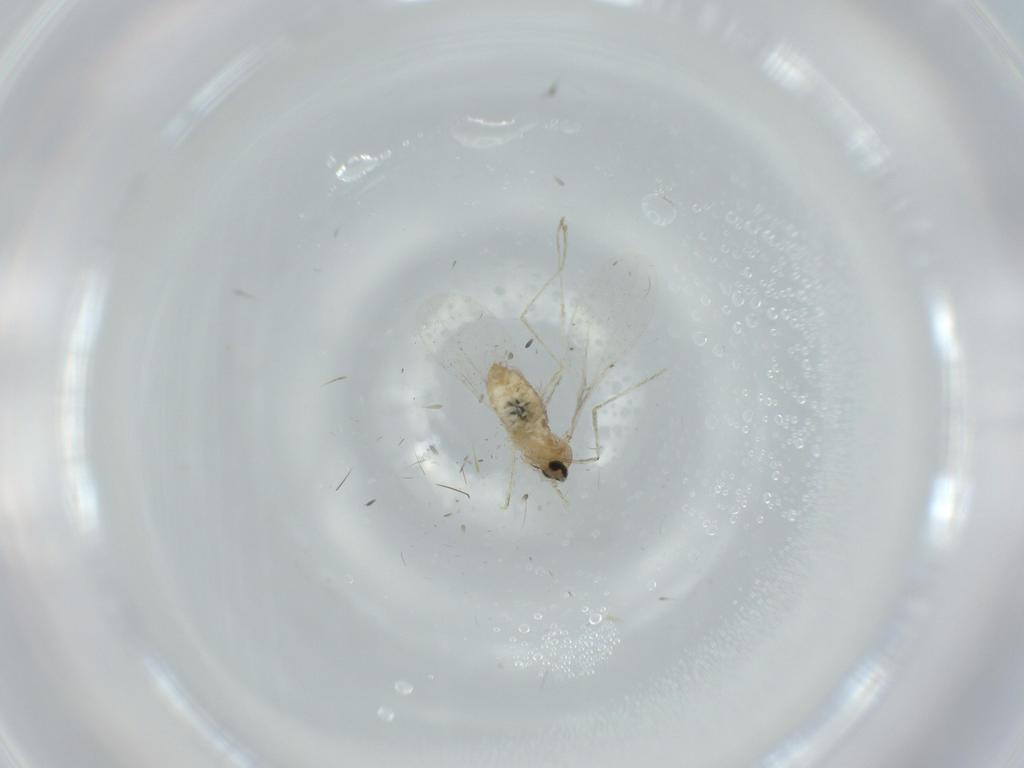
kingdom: Animalia
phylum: Arthropoda
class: Insecta
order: Diptera
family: Cecidomyiidae
